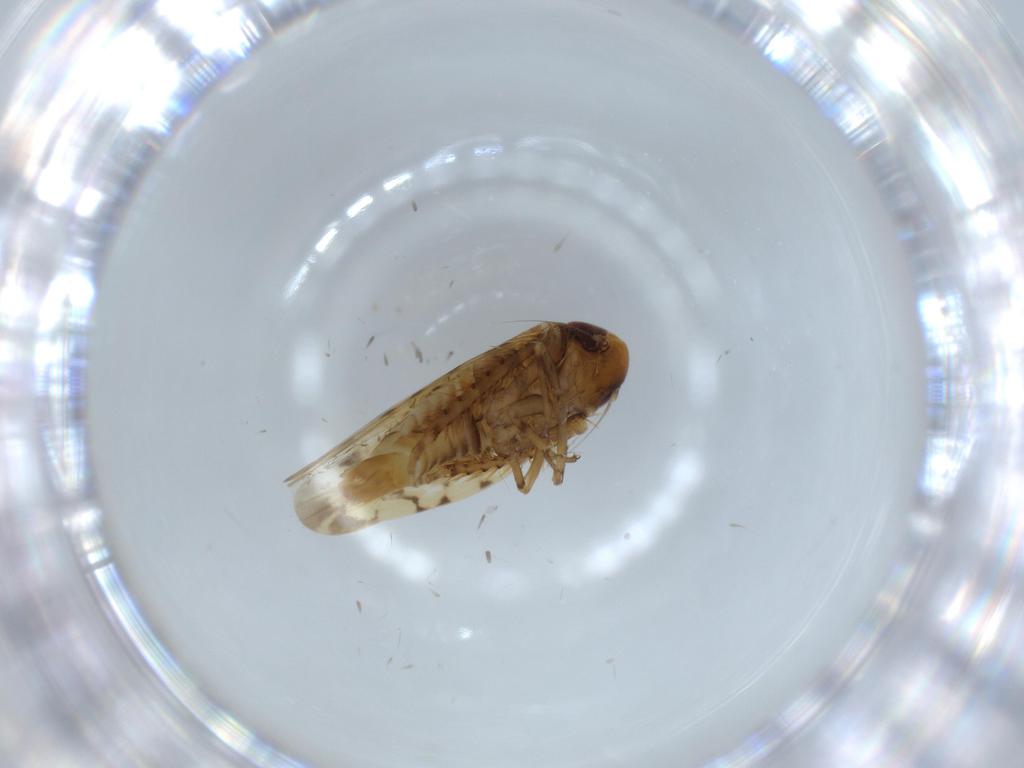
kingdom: Animalia
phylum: Arthropoda
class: Insecta
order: Hemiptera
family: Cicadellidae
